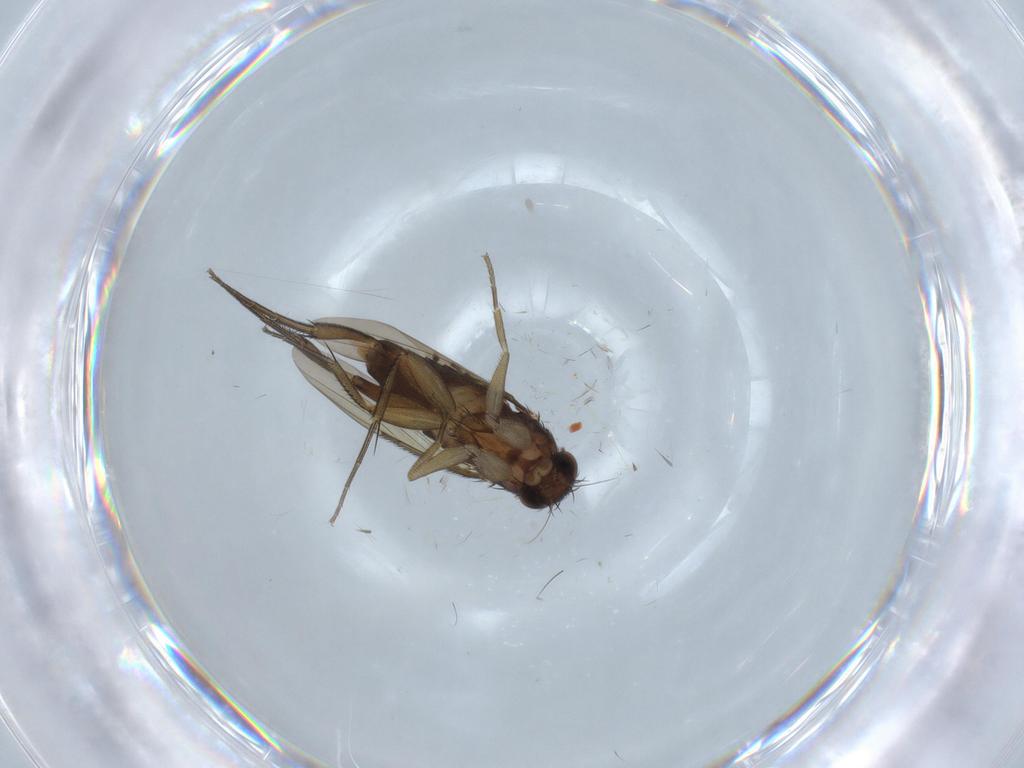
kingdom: Animalia
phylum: Arthropoda
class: Insecta
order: Diptera
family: Phoridae
